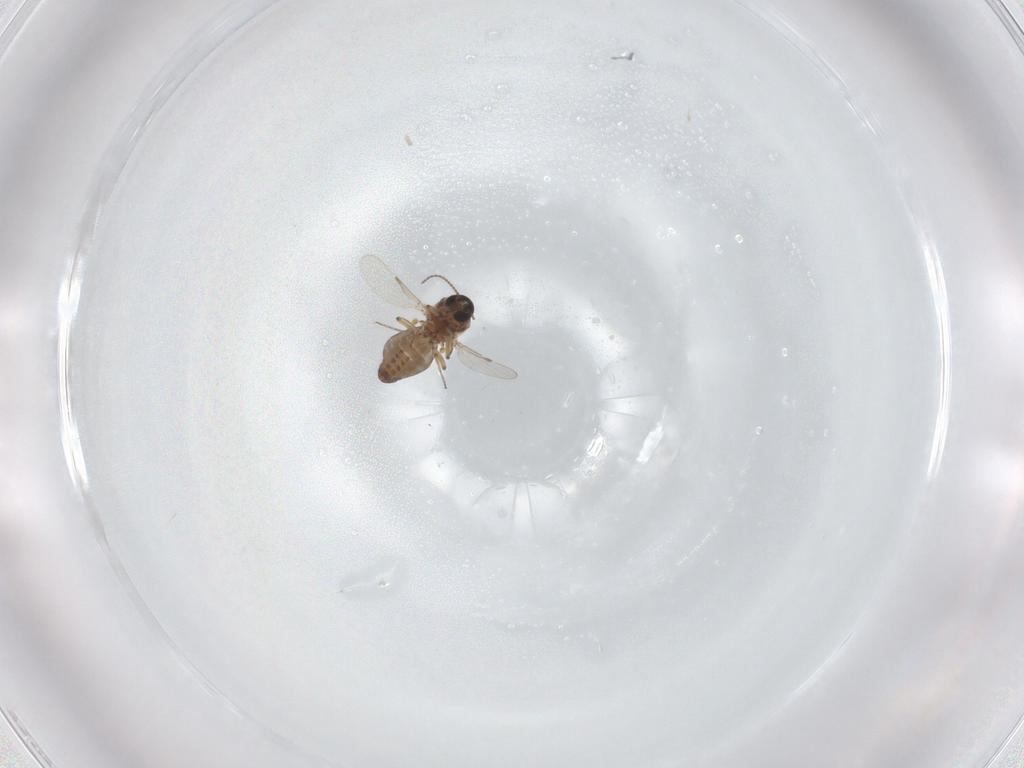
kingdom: Animalia
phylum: Arthropoda
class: Insecta
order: Diptera
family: Ceratopogonidae
